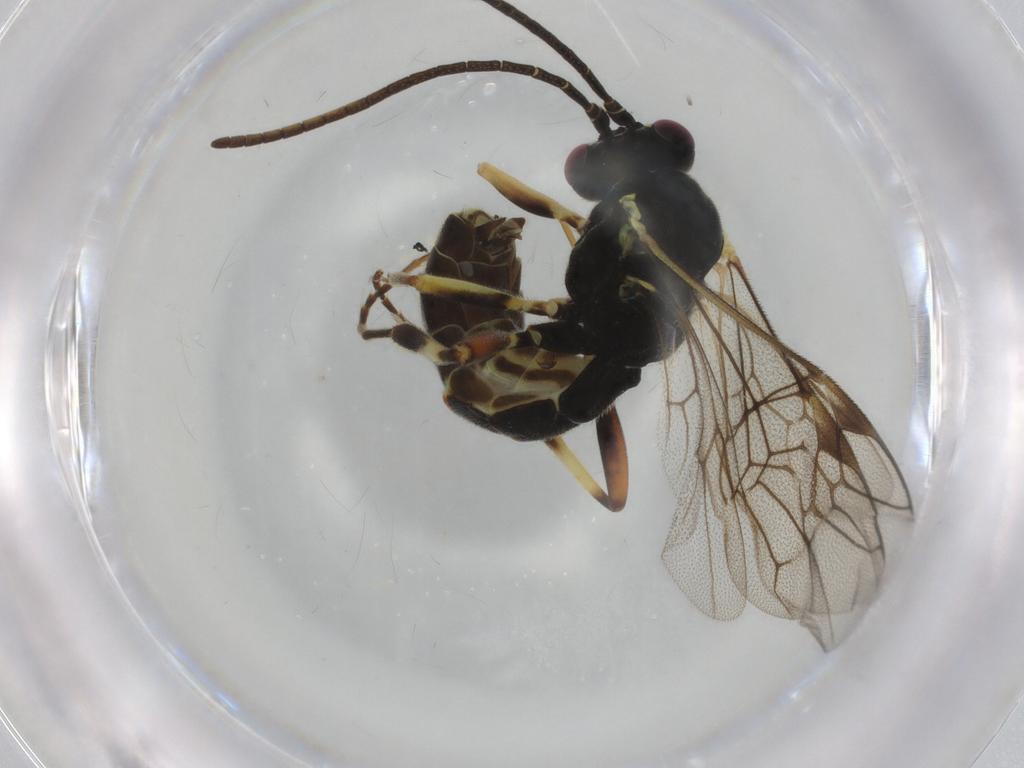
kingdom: Animalia
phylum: Arthropoda
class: Insecta
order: Hymenoptera
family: Ichneumonidae
